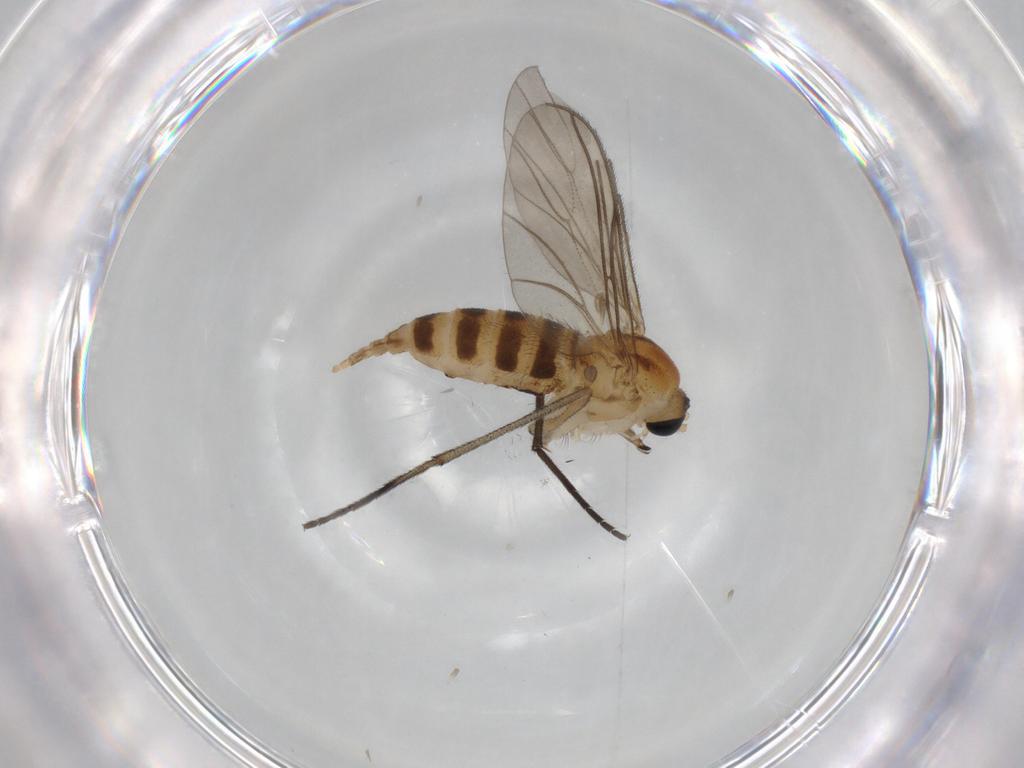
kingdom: Animalia
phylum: Arthropoda
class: Insecta
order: Diptera
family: Sciaridae
